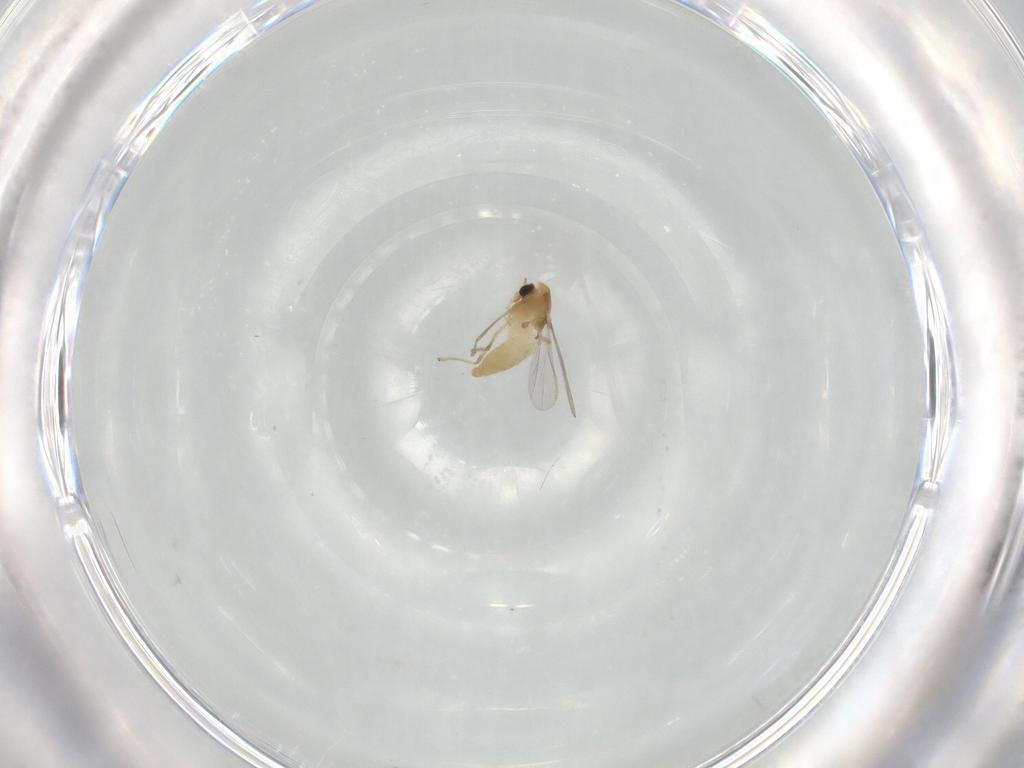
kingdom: Animalia
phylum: Arthropoda
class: Insecta
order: Diptera
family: Chironomidae
